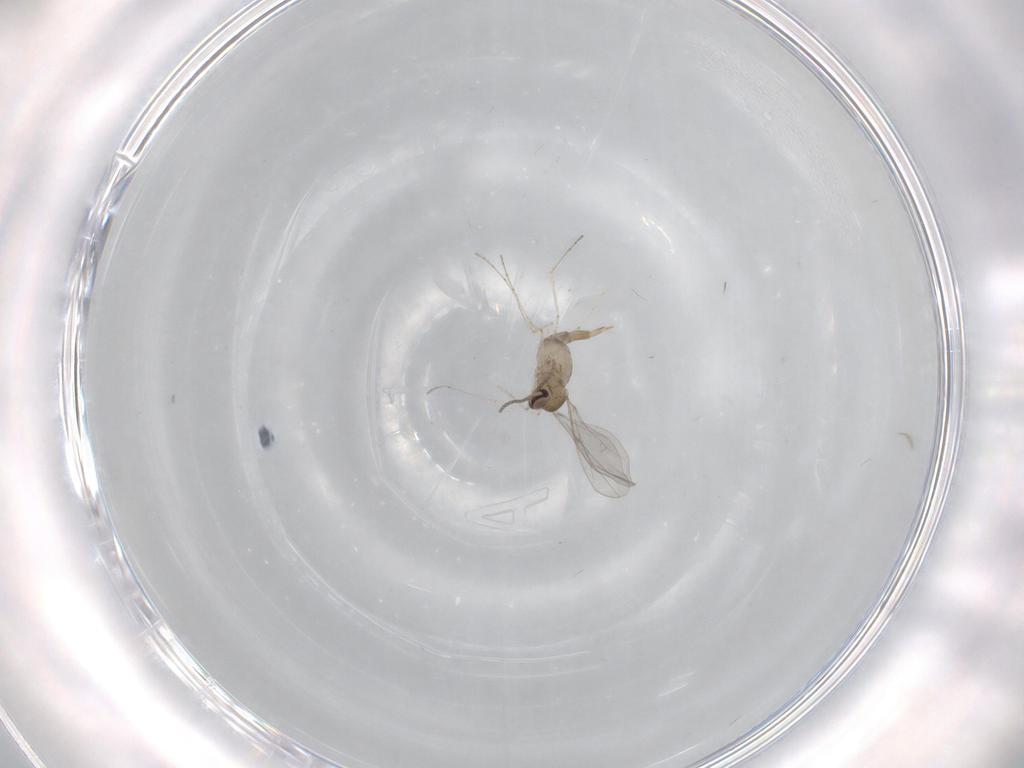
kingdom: Animalia
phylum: Arthropoda
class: Insecta
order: Diptera
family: Cecidomyiidae
